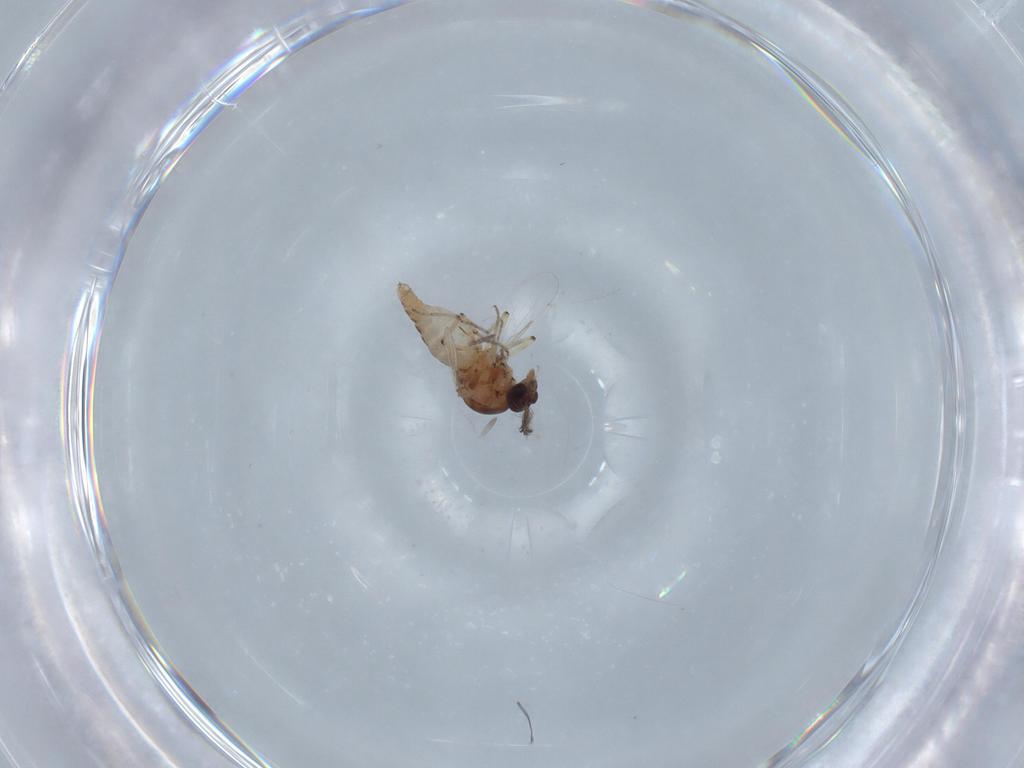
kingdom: Animalia
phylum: Arthropoda
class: Insecta
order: Diptera
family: Ceratopogonidae
